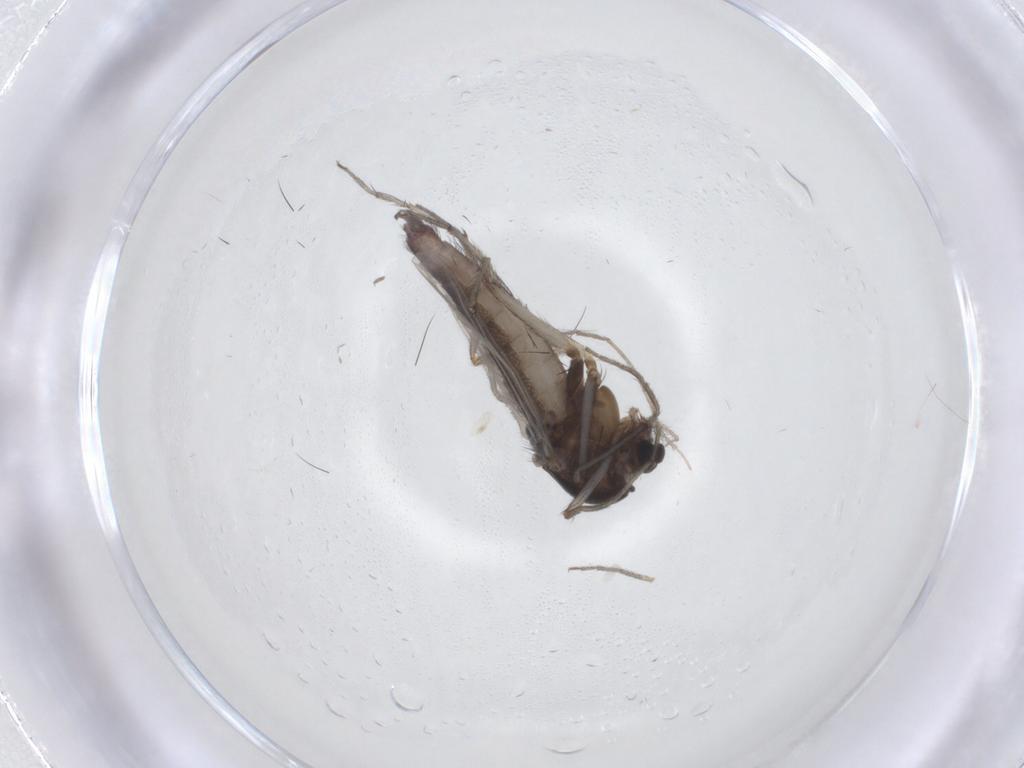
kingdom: Animalia
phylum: Arthropoda
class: Insecta
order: Diptera
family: Chironomidae
